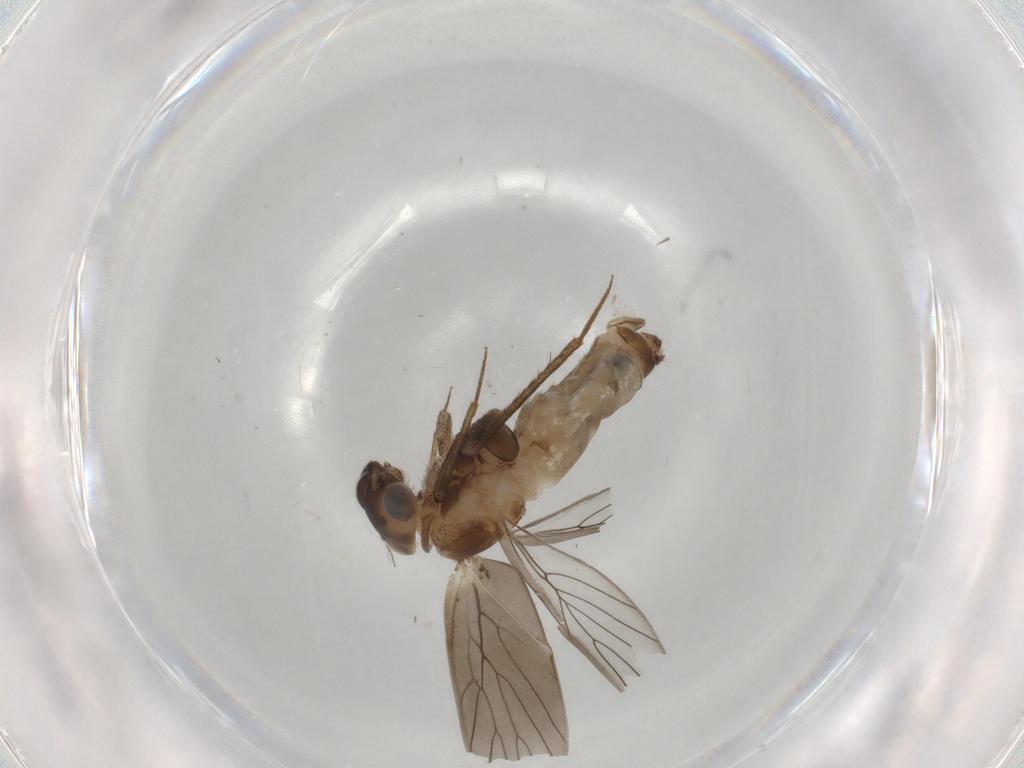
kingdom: Animalia
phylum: Arthropoda
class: Insecta
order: Psocodea
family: Lepidopsocidae
